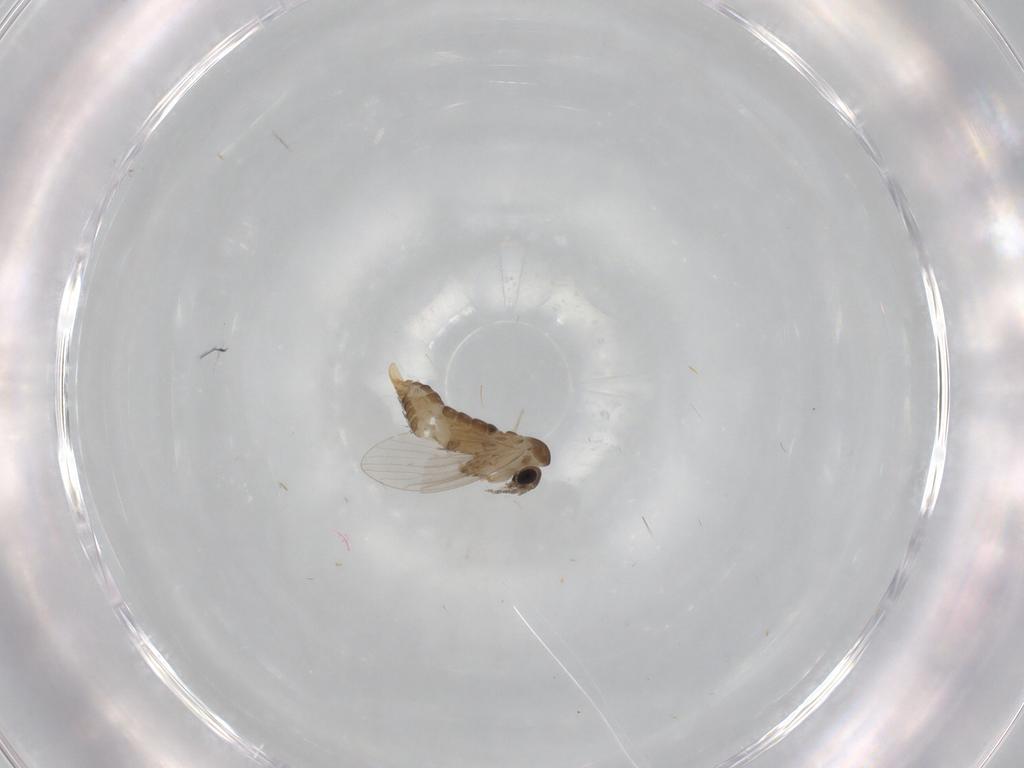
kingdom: Animalia
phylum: Arthropoda
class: Insecta
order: Diptera
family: Psychodidae
